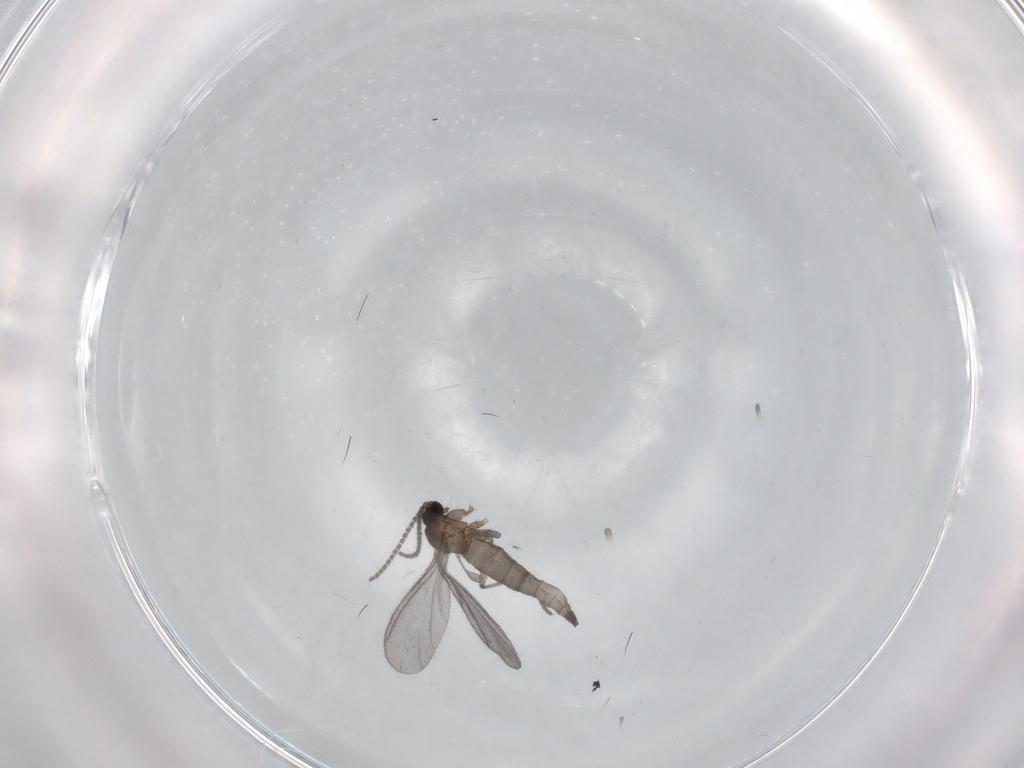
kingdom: Animalia
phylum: Arthropoda
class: Insecta
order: Diptera
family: Sciaridae
